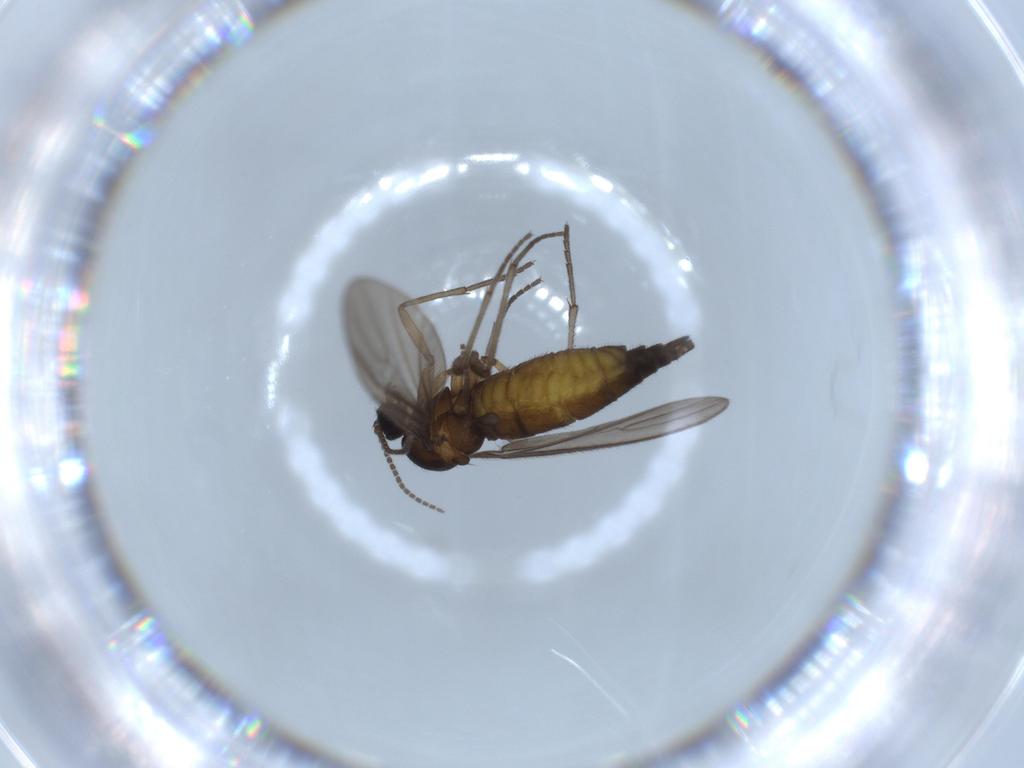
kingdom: Animalia
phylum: Arthropoda
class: Insecta
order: Diptera
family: Sciaridae
